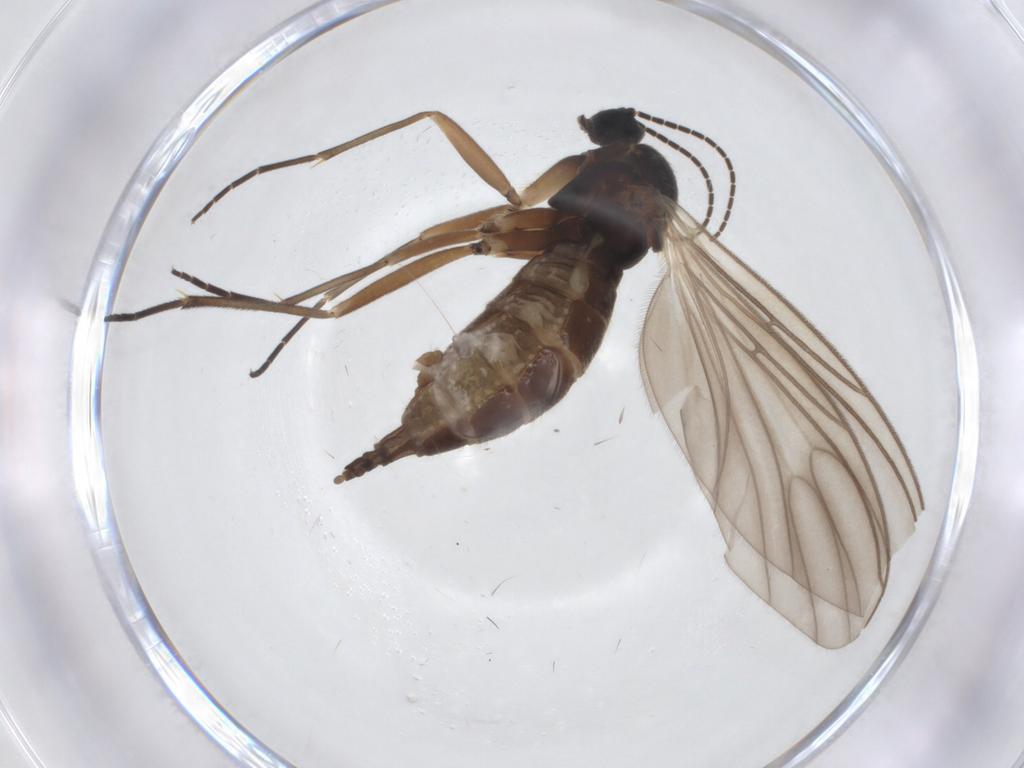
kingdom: Animalia
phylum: Arthropoda
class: Insecta
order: Diptera
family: Sciaridae
